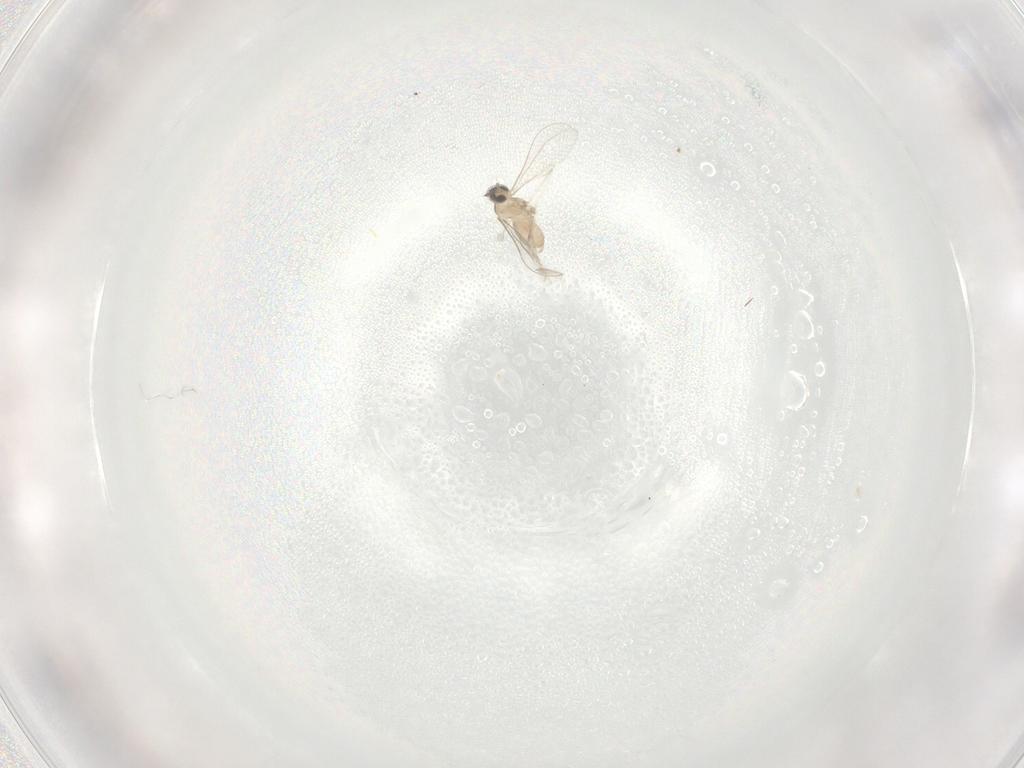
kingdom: Animalia
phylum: Arthropoda
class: Insecta
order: Diptera
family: Cecidomyiidae
